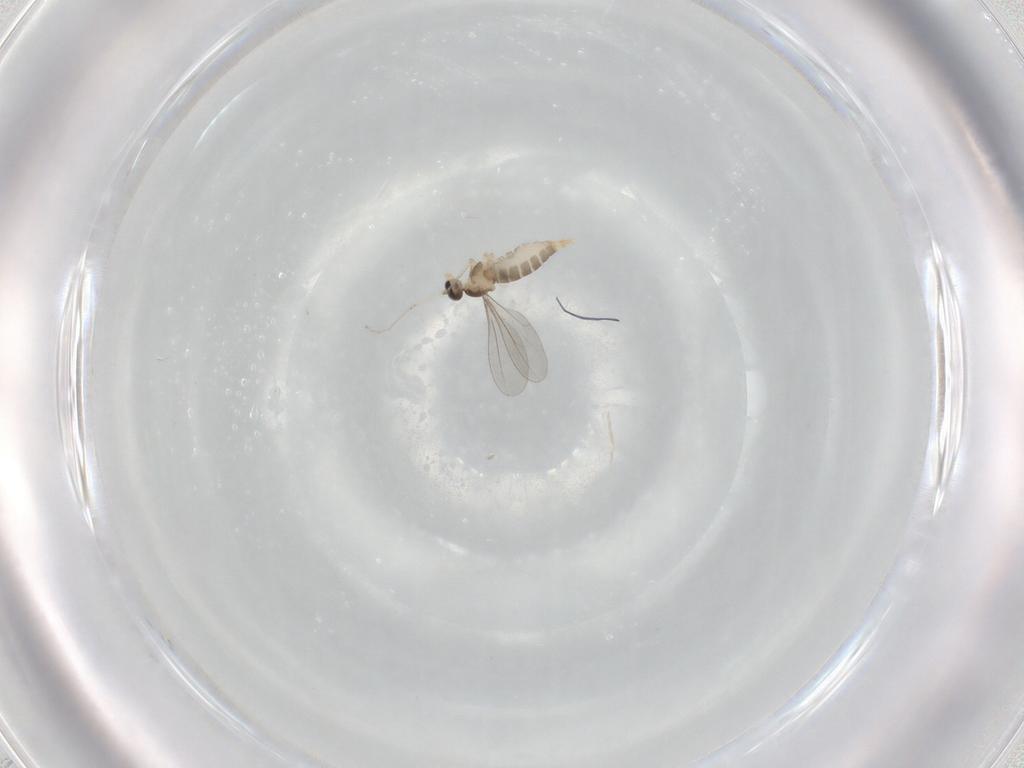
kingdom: Animalia
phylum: Arthropoda
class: Insecta
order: Diptera
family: Cecidomyiidae
